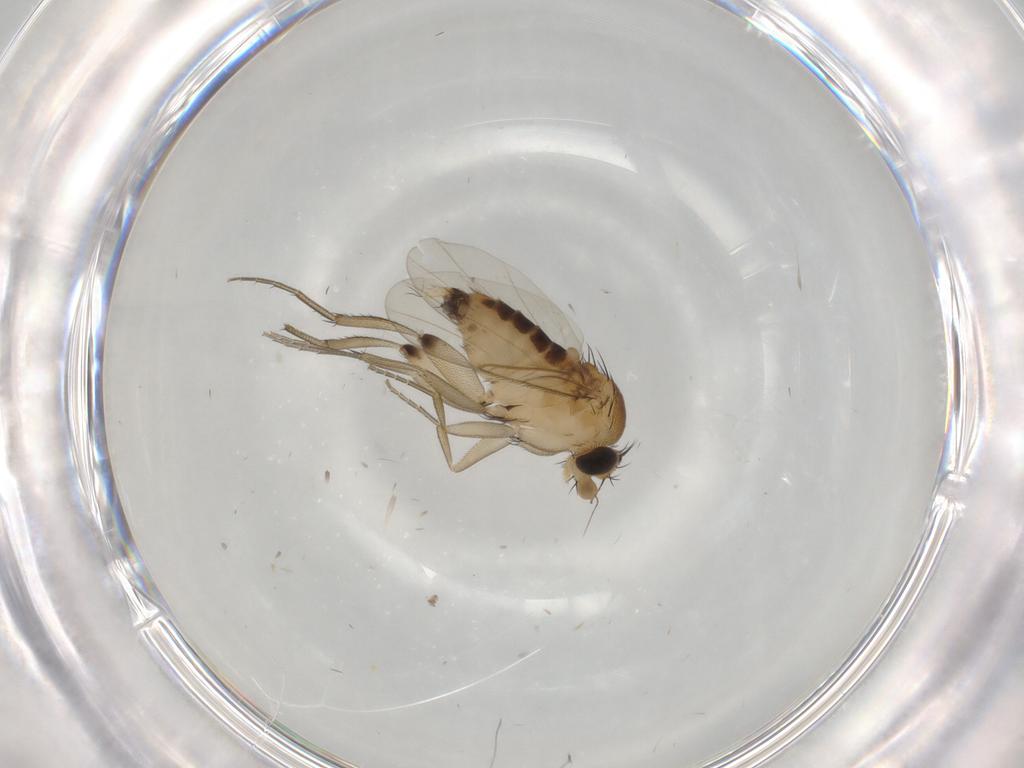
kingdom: Animalia
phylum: Arthropoda
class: Insecta
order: Diptera
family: Phoridae
